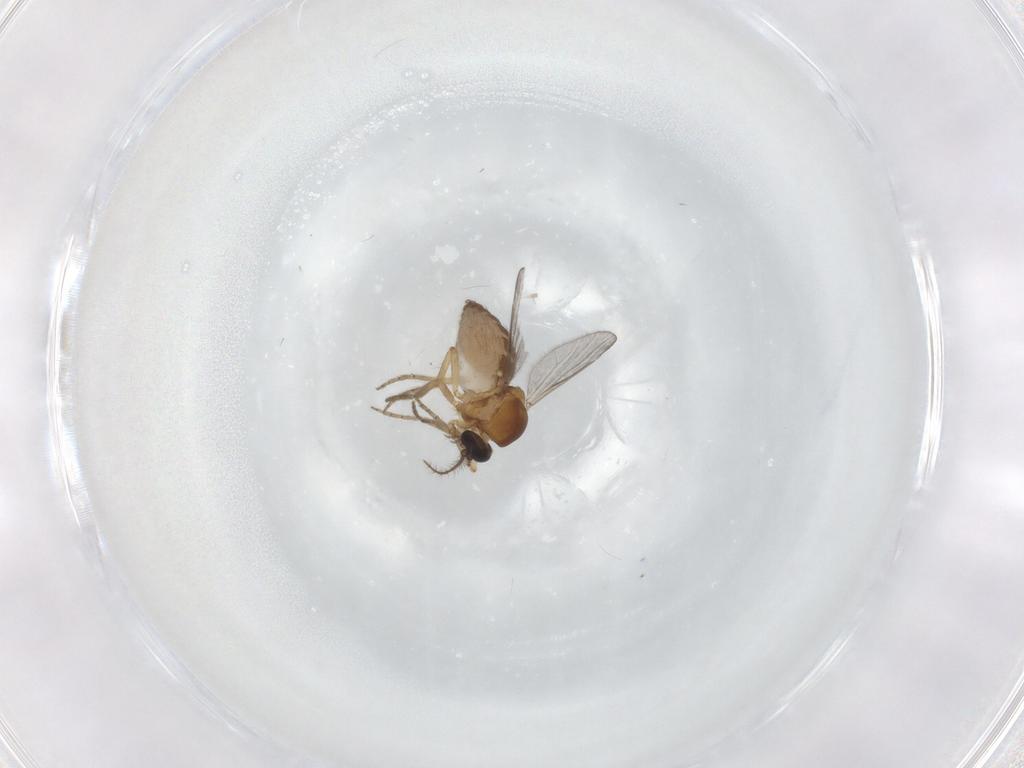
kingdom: Animalia
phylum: Arthropoda
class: Insecta
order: Diptera
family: Ceratopogonidae
